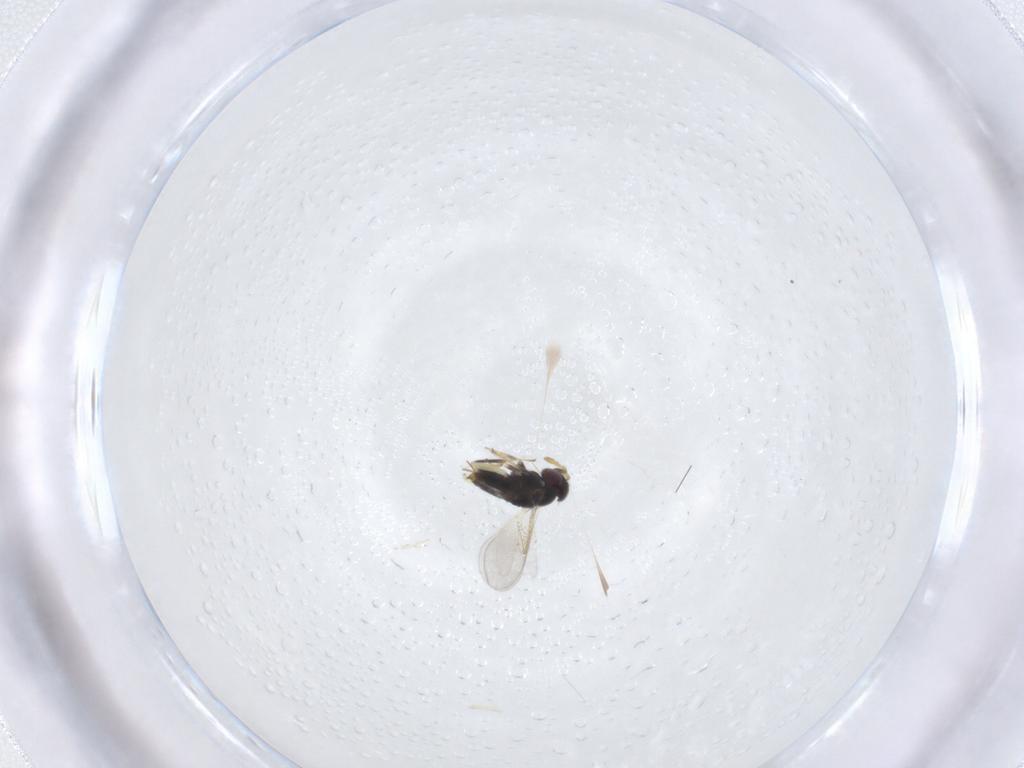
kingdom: Animalia
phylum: Arthropoda
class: Insecta
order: Hymenoptera
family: Aphelinidae
